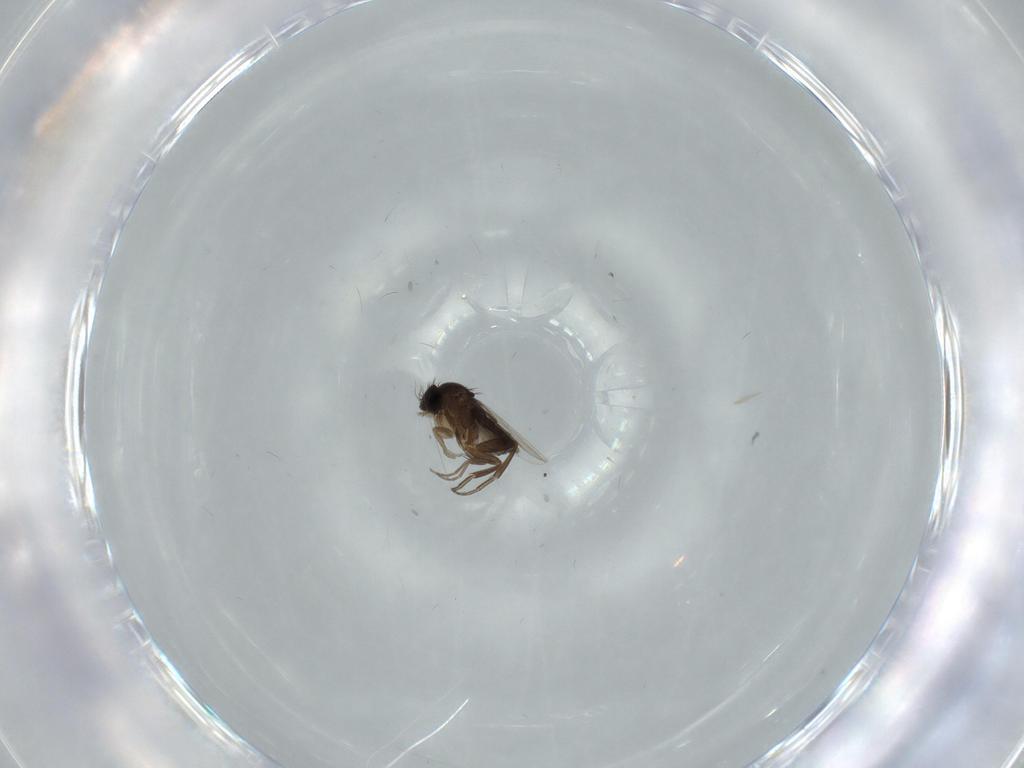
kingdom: Animalia
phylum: Arthropoda
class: Insecta
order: Diptera
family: Phoridae
